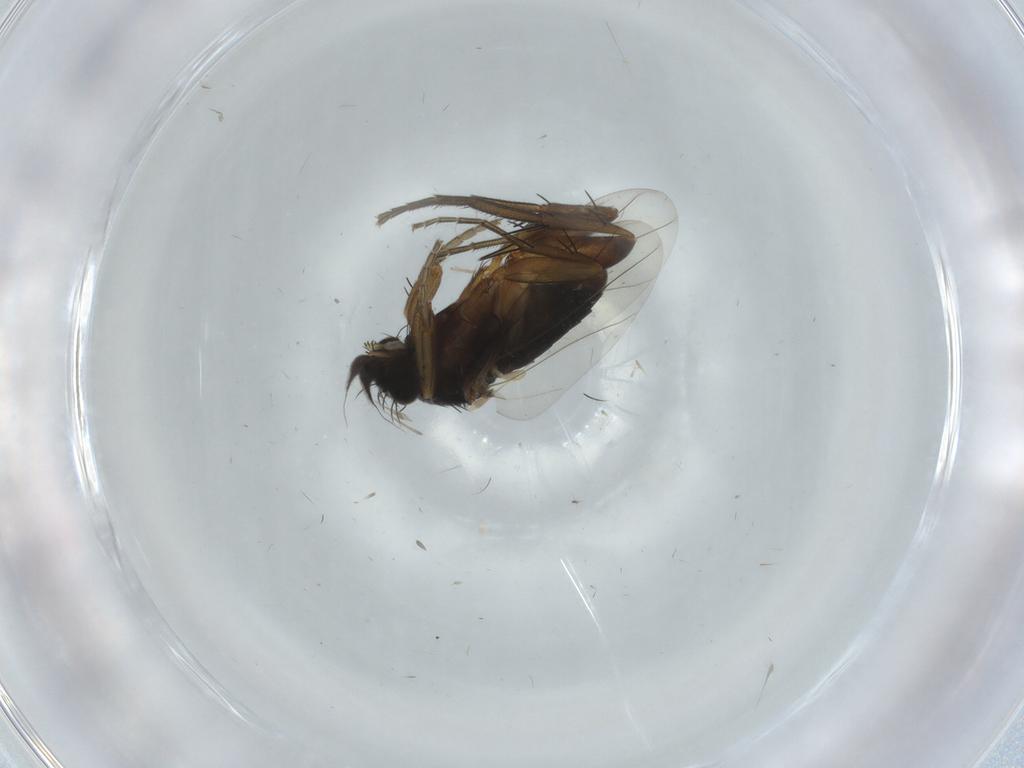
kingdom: Animalia
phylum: Arthropoda
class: Insecta
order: Diptera
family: Phoridae
